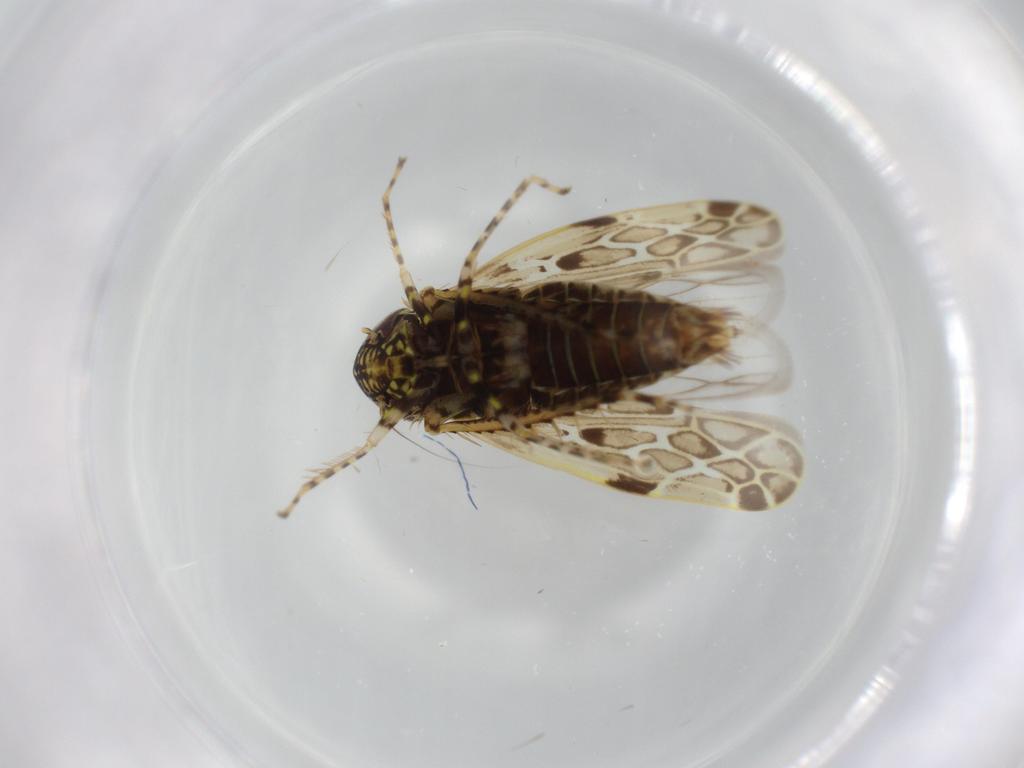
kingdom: Animalia
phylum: Arthropoda
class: Insecta
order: Hemiptera
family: Cicadellidae
